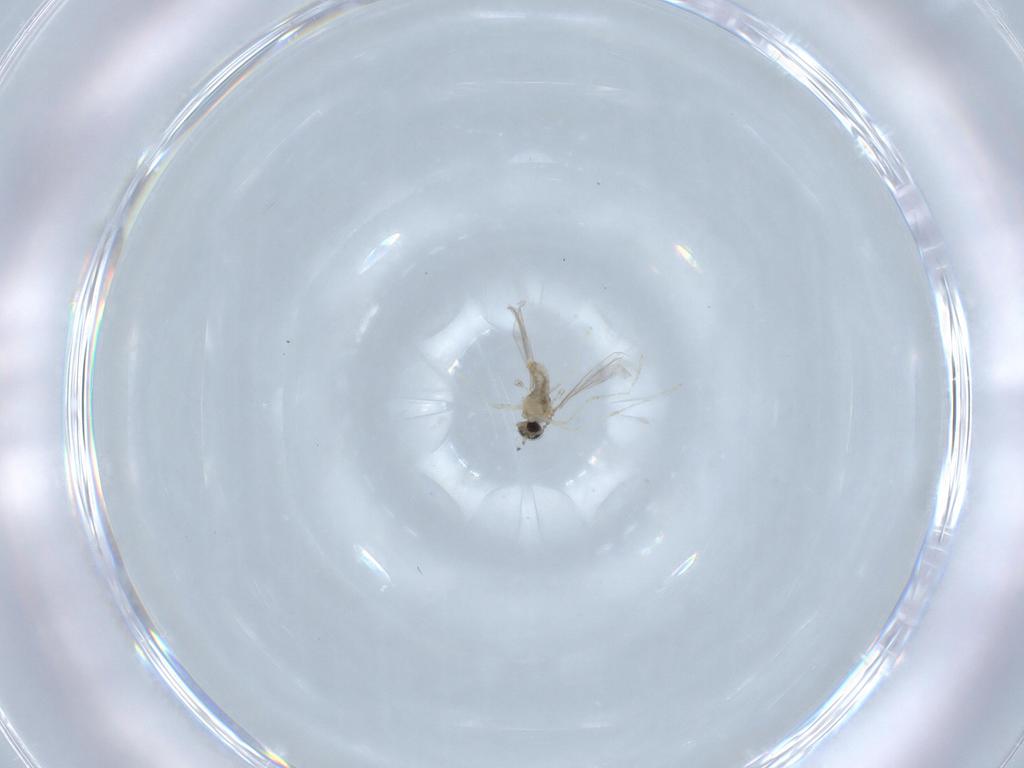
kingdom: Animalia
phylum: Arthropoda
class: Insecta
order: Diptera
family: Cecidomyiidae
